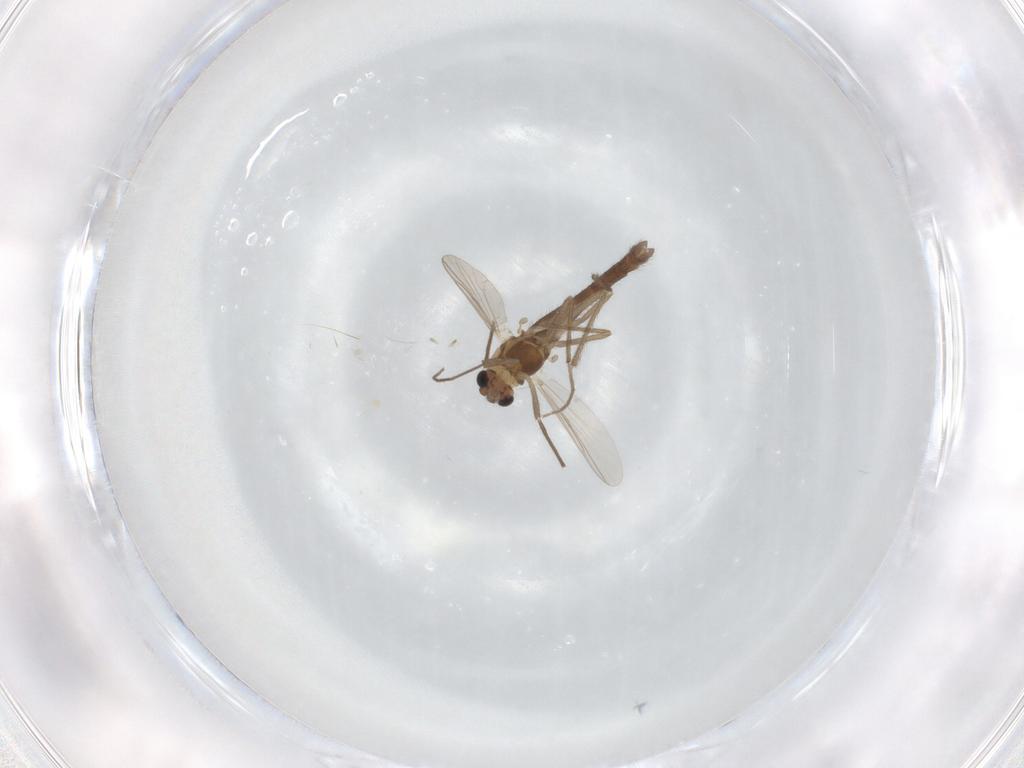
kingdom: Animalia
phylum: Arthropoda
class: Insecta
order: Diptera
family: Chironomidae
